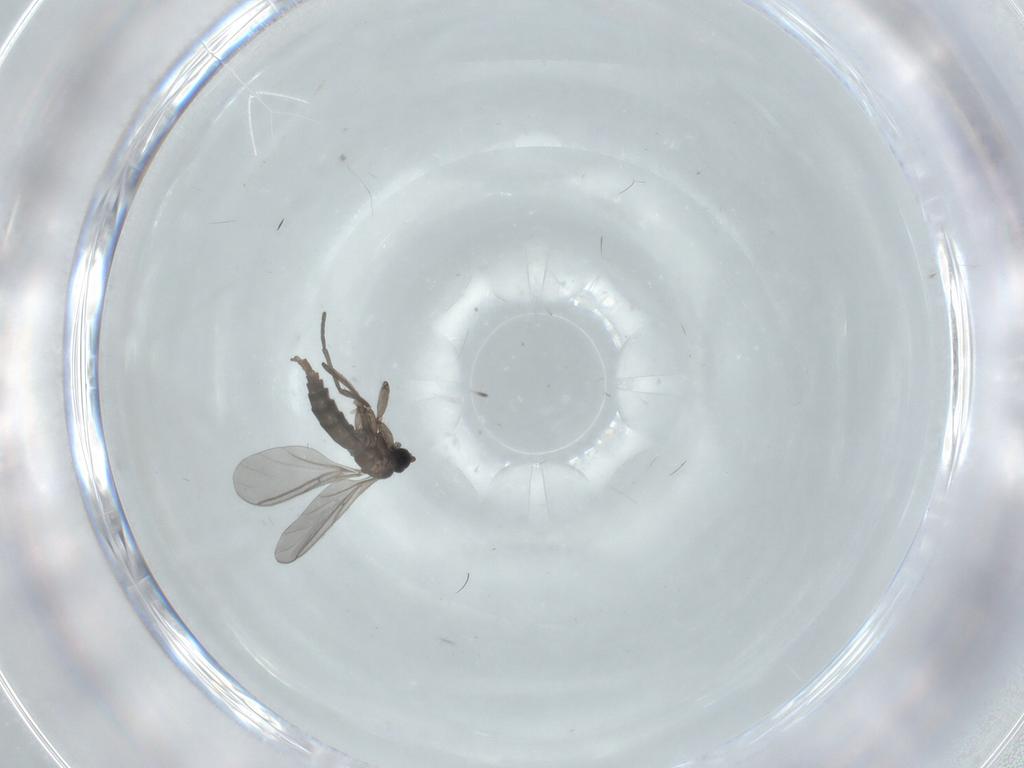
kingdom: Animalia
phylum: Arthropoda
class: Insecta
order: Diptera
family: Sciaridae
